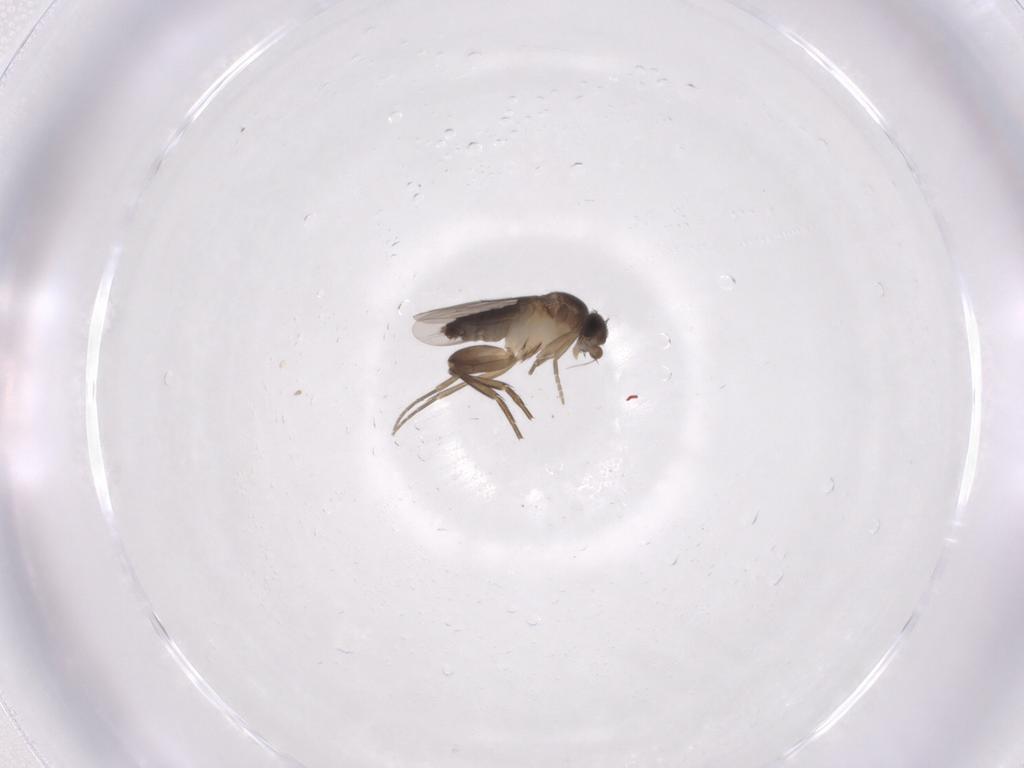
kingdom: Animalia
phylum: Arthropoda
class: Insecta
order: Diptera
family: Phoridae
